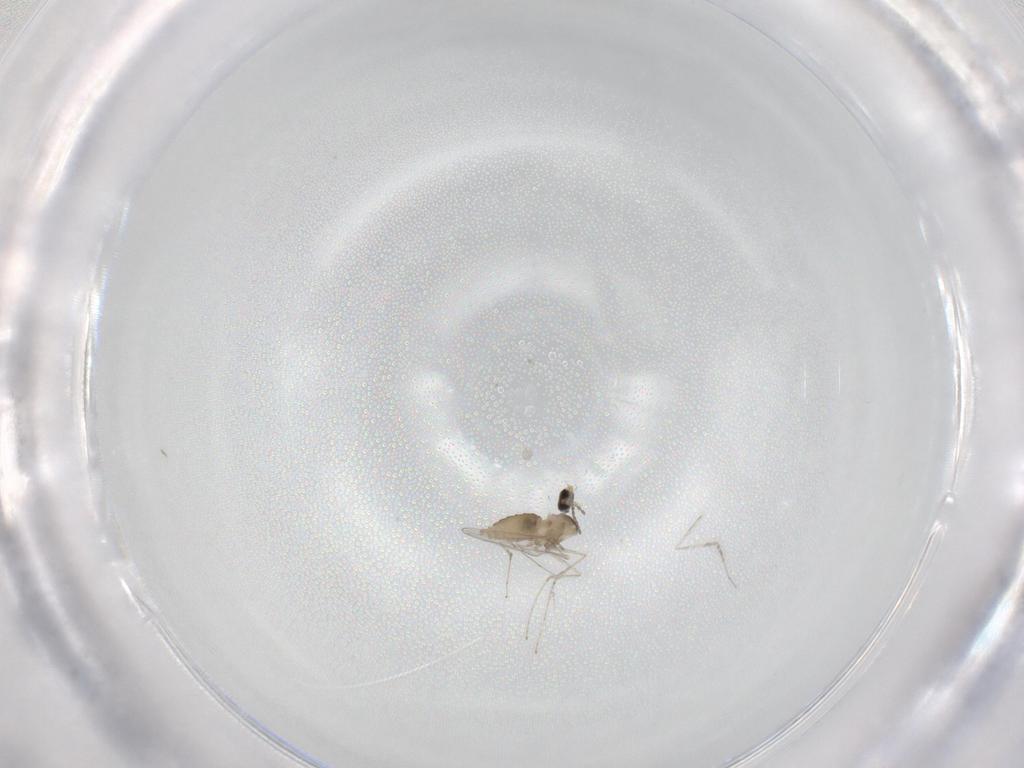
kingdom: Animalia
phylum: Arthropoda
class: Insecta
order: Diptera
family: Cecidomyiidae
